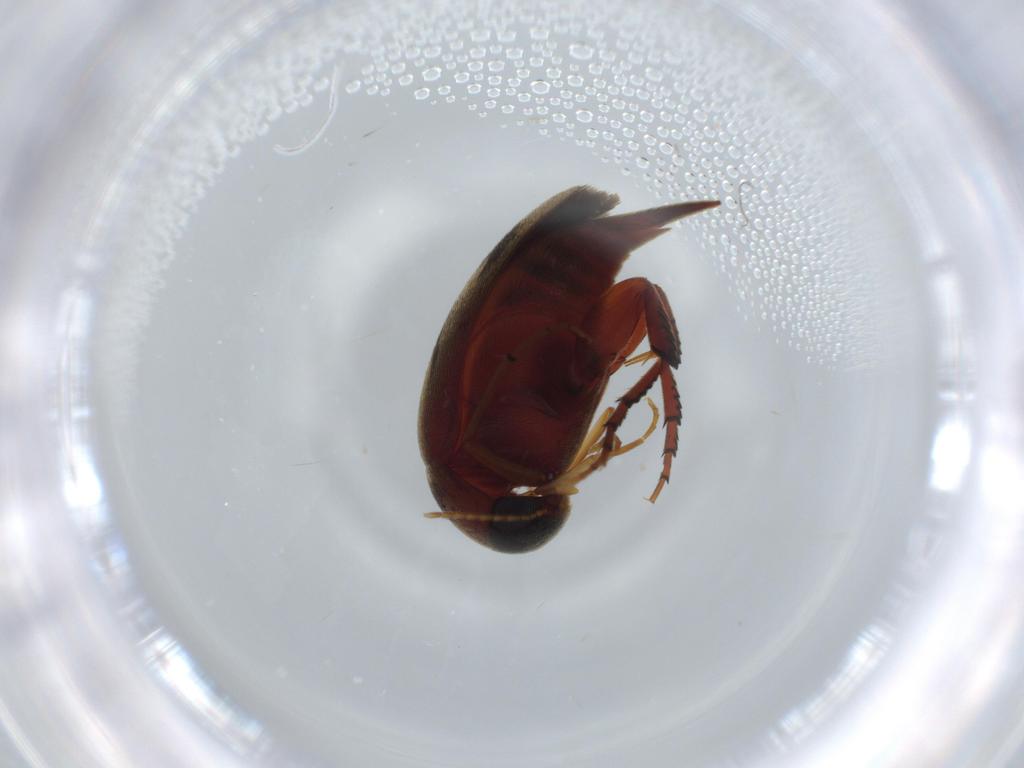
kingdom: Animalia
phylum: Arthropoda
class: Insecta
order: Coleoptera
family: Mordellidae
